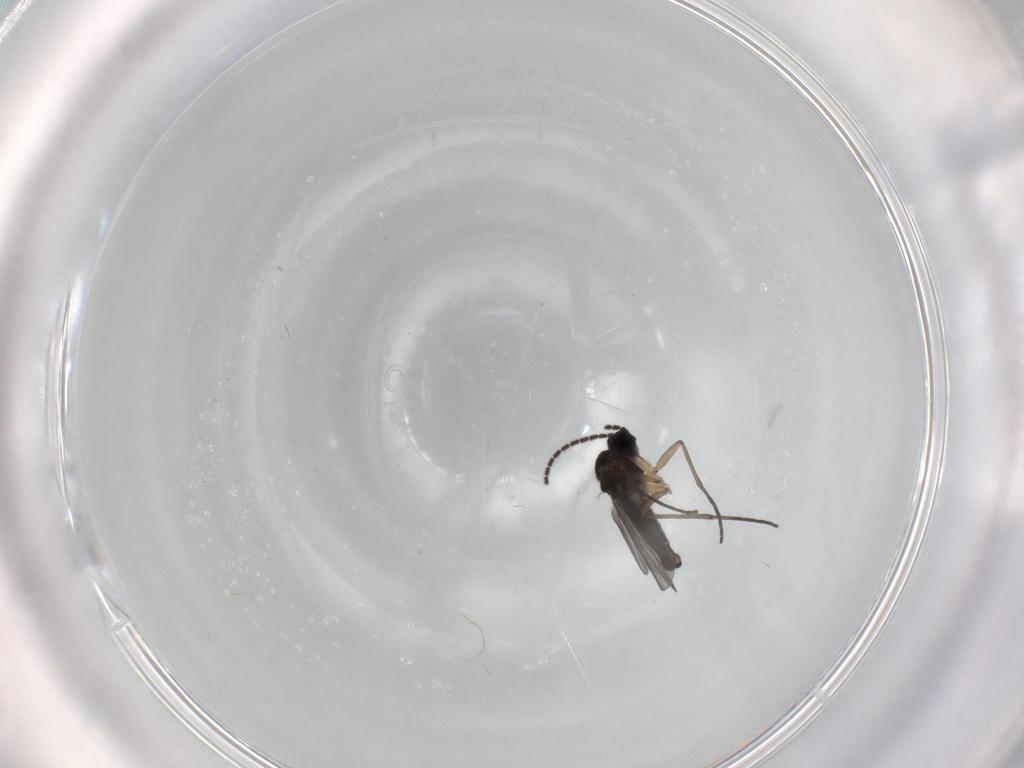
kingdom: Animalia
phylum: Arthropoda
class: Insecta
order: Diptera
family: Sciaridae
